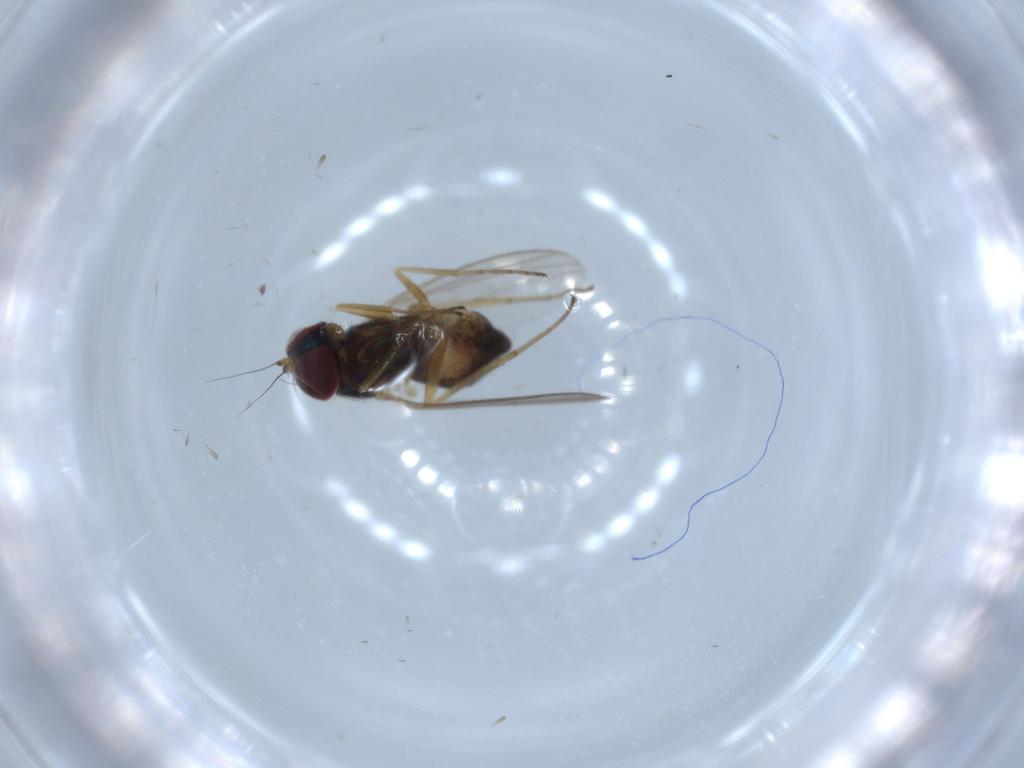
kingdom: Animalia
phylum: Arthropoda
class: Insecta
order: Diptera
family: Dolichopodidae
